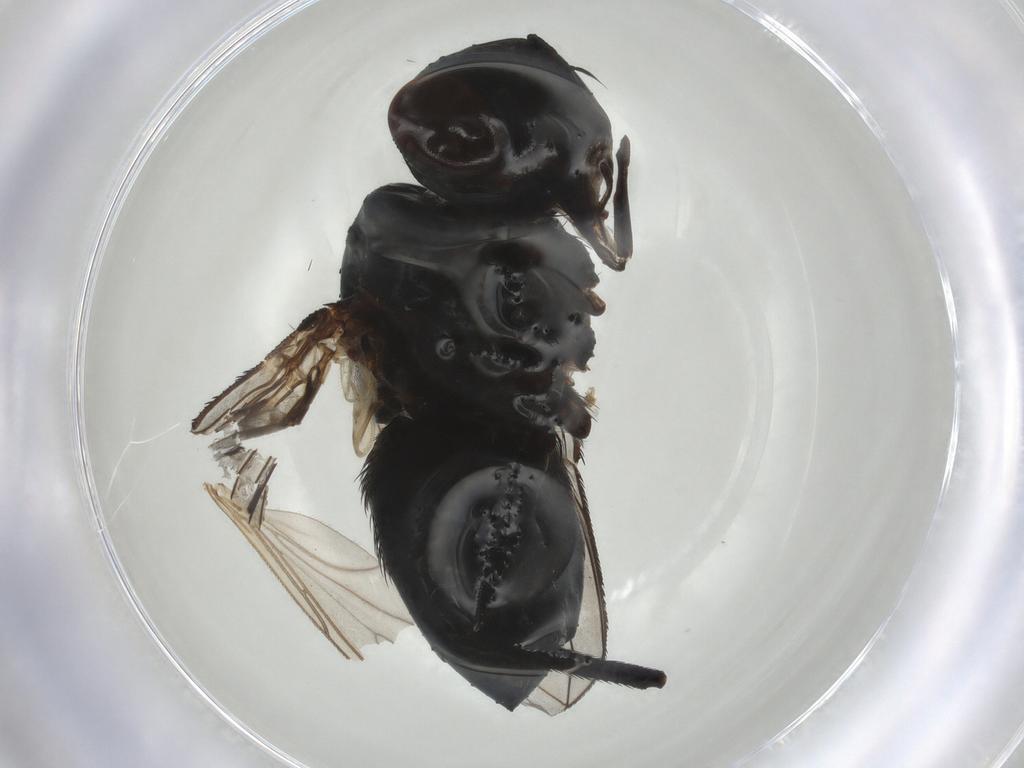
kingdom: Animalia
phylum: Arthropoda
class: Insecta
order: Diptera
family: Tachinidae
